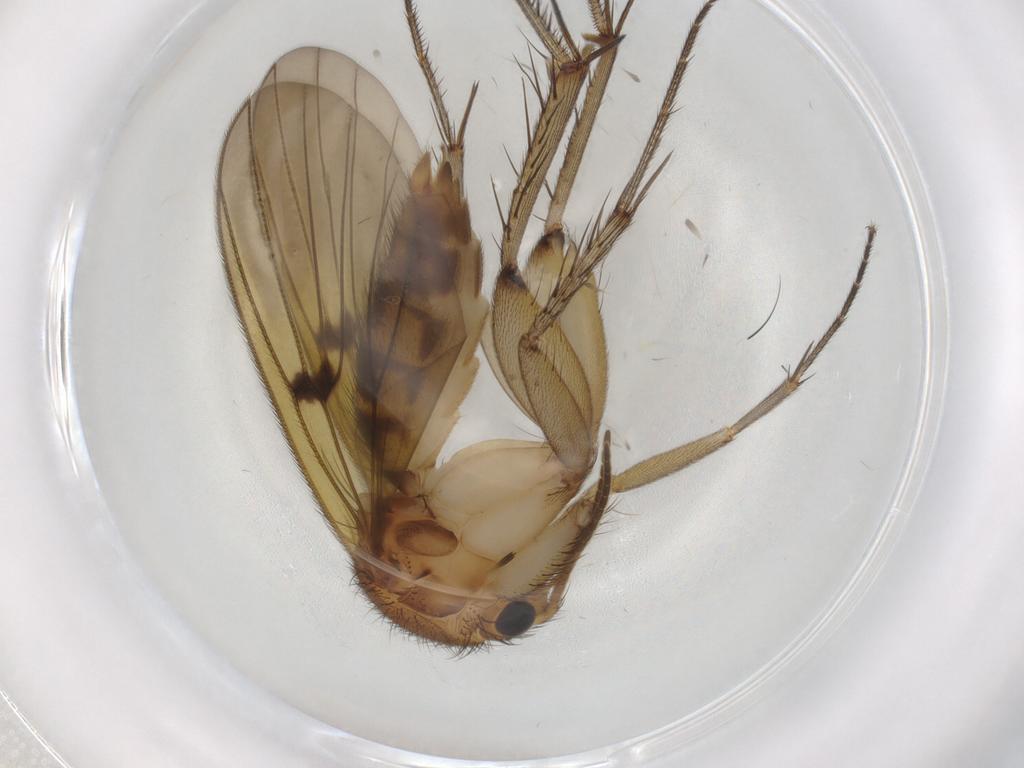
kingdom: Animalia
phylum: Arthropoda
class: Insecta
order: Diptera
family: Mycetophilidae
